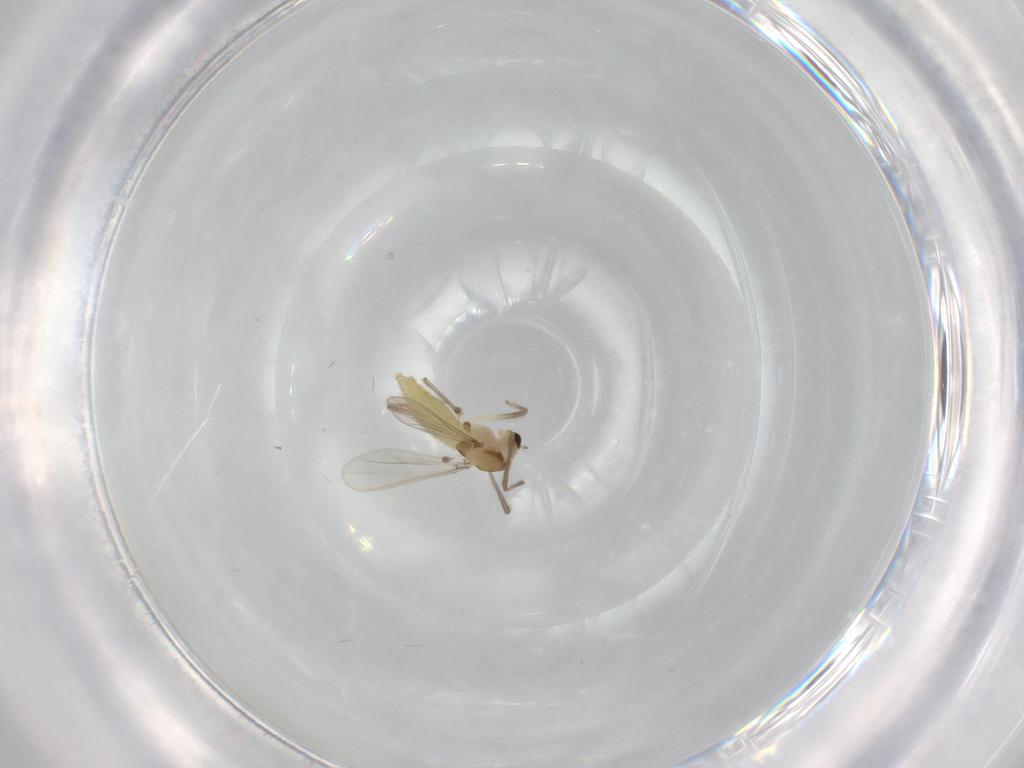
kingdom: Animalia
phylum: Arthropoda
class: Insecta
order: Diptera
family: Chironomidae
